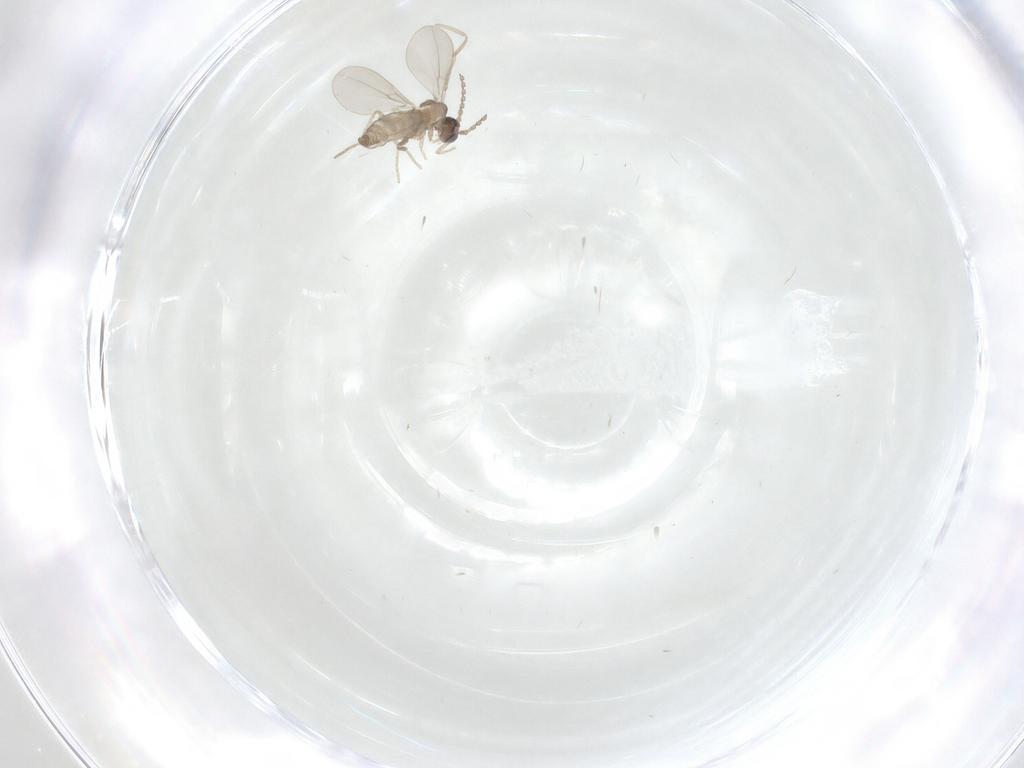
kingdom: Animalia
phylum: Arthropoda
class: Insecta
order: Diptera
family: Cecidomyiidae
